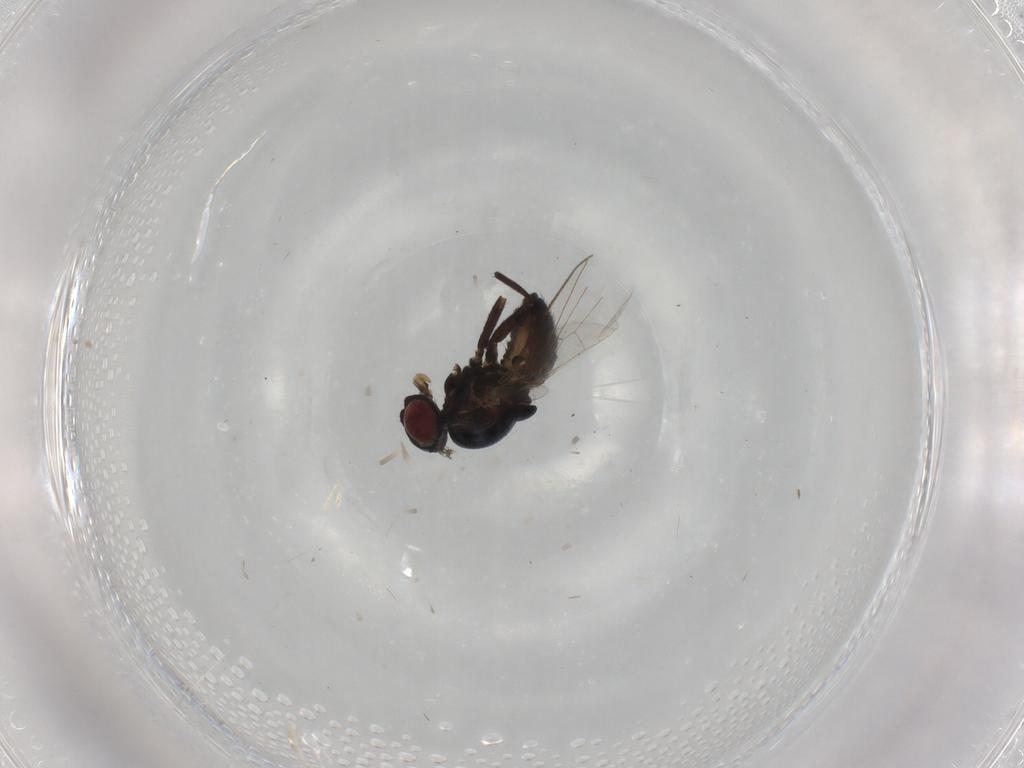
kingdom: Animalia
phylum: Arthropoda
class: Insecta
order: Diptera
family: Agromyzidae
